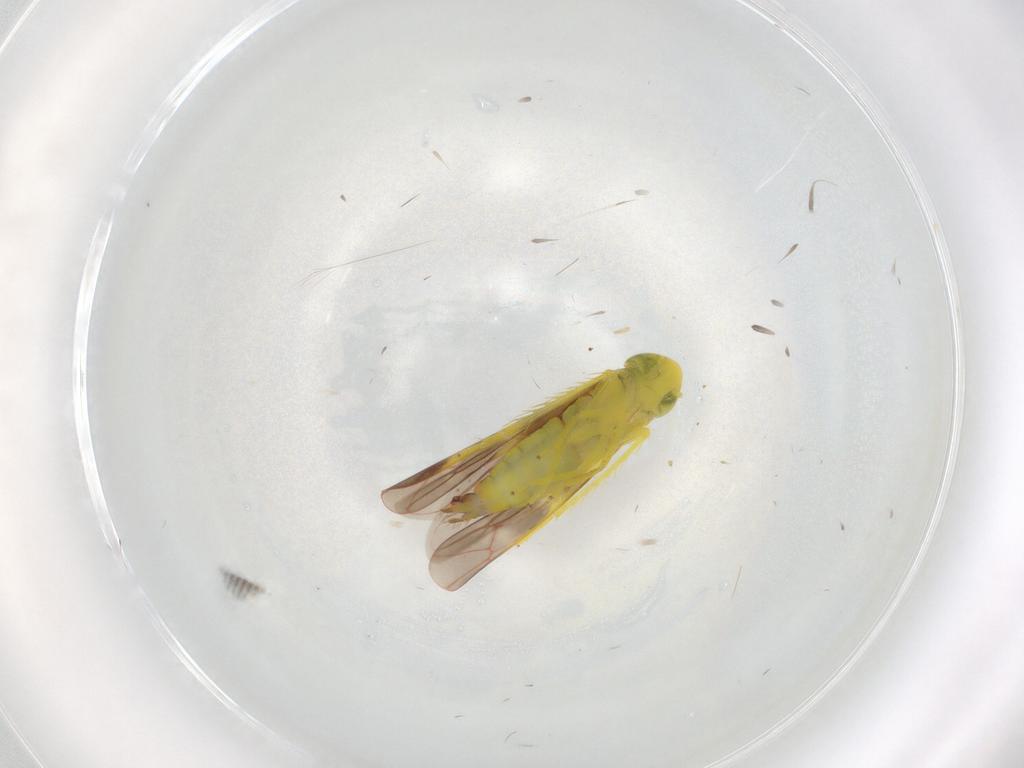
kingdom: Animalia
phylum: Arthropoda
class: Insecta
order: Hemiptera
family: Cicadellidae
